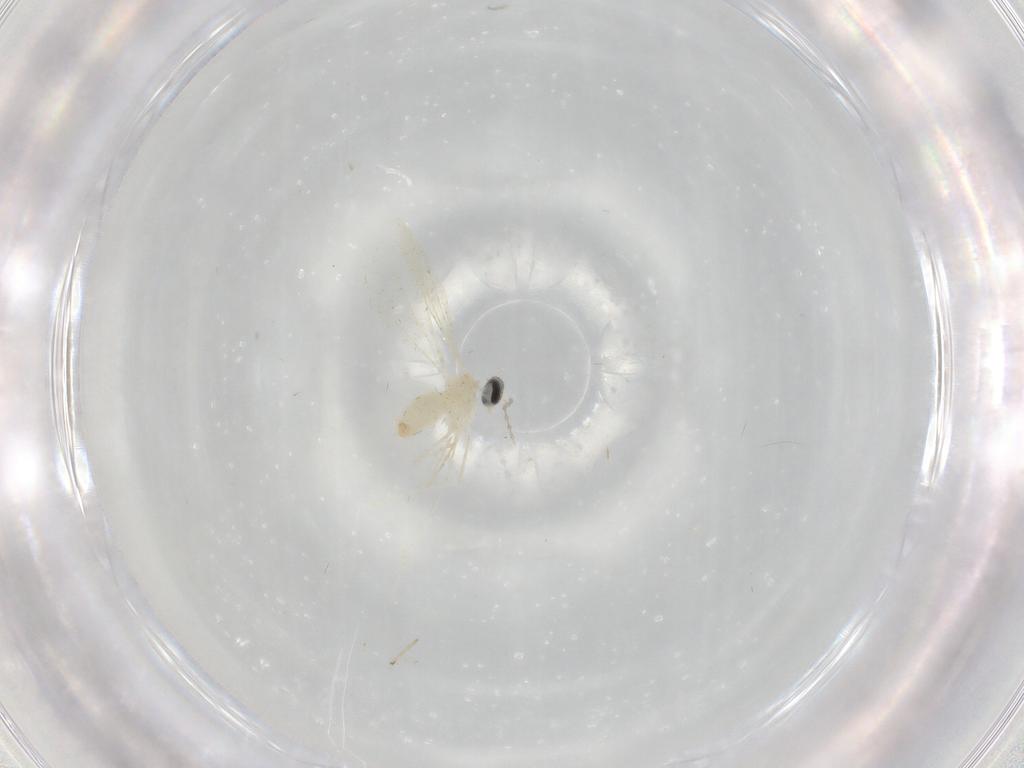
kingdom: Animalia
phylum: Arthropoda
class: Insecta
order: Diptera
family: Cecidomyiidae
